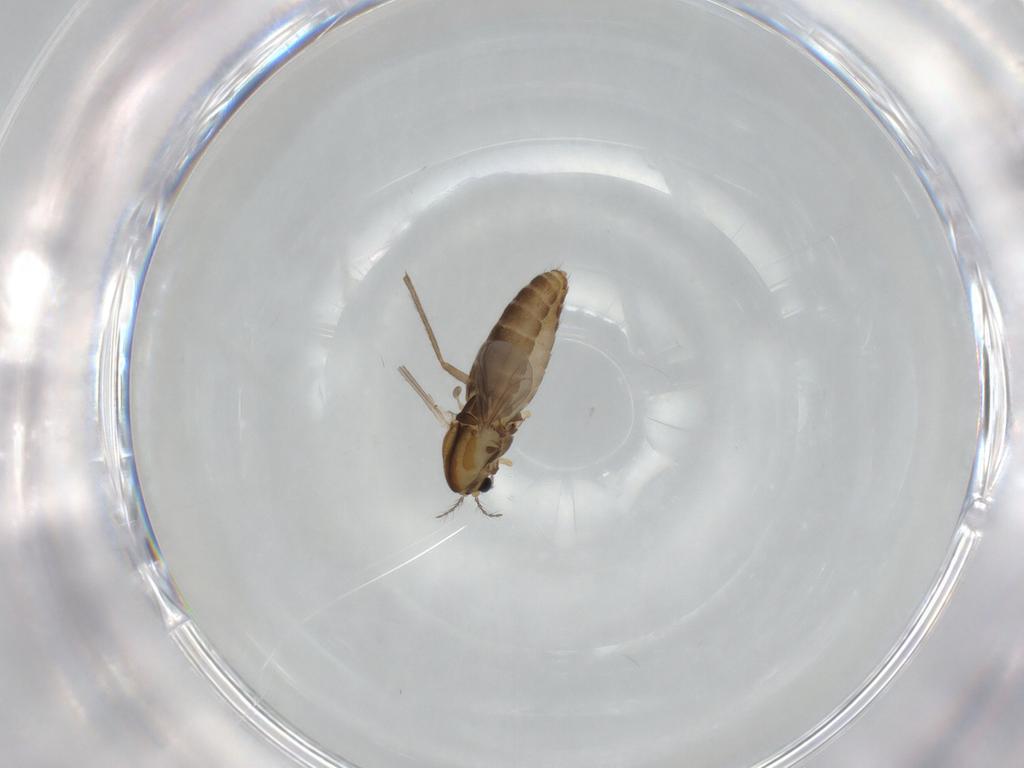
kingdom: Animalia
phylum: Arthropoda
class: Insecta
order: Diptera
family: Chironomidae
